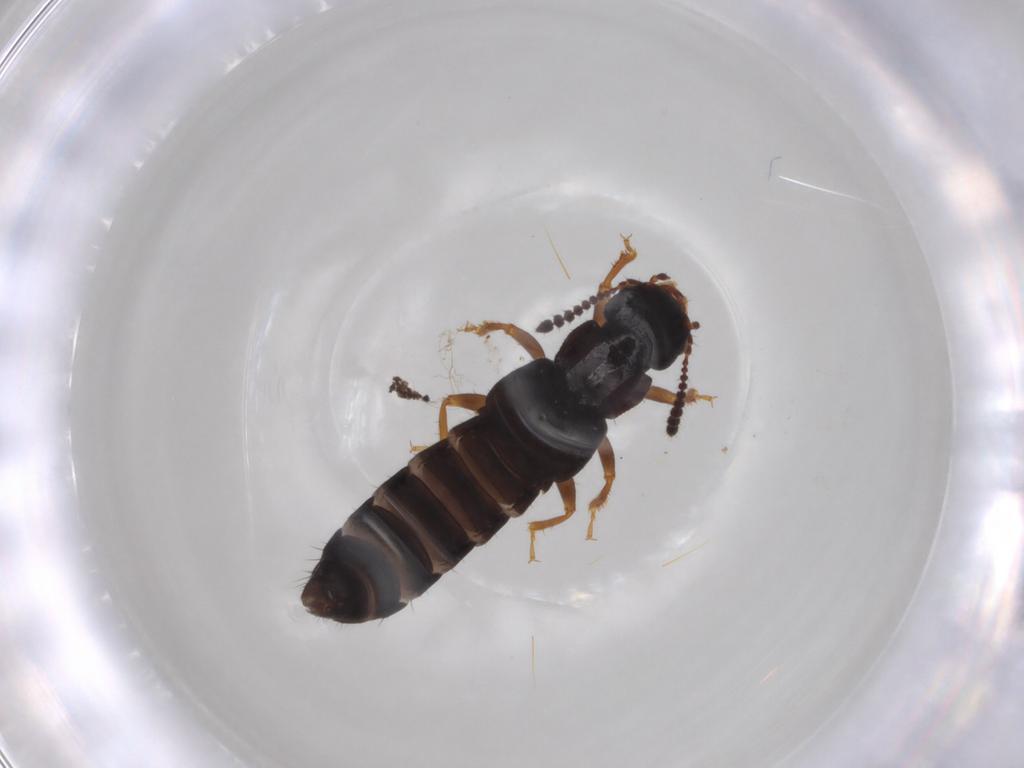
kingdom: Animalia
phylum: Arthropoda
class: Insecta
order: Coleoptera
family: Staphylinidae
